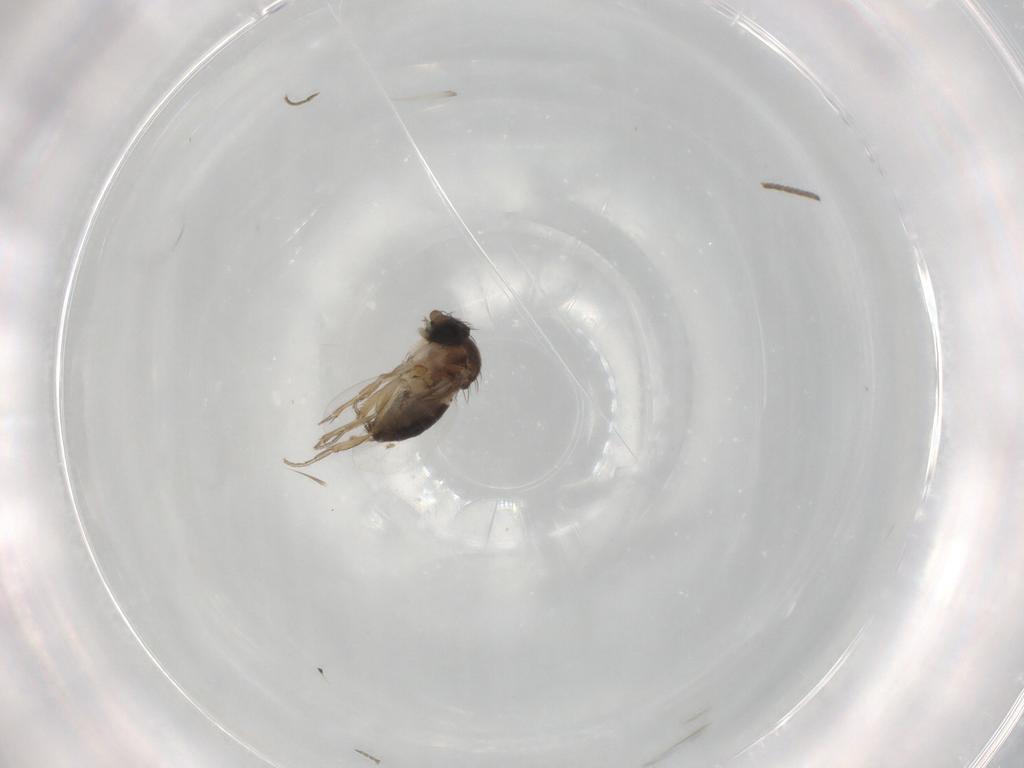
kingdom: Animalia
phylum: Arthropoda
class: Insecta
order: Diptera
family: Phoridae
